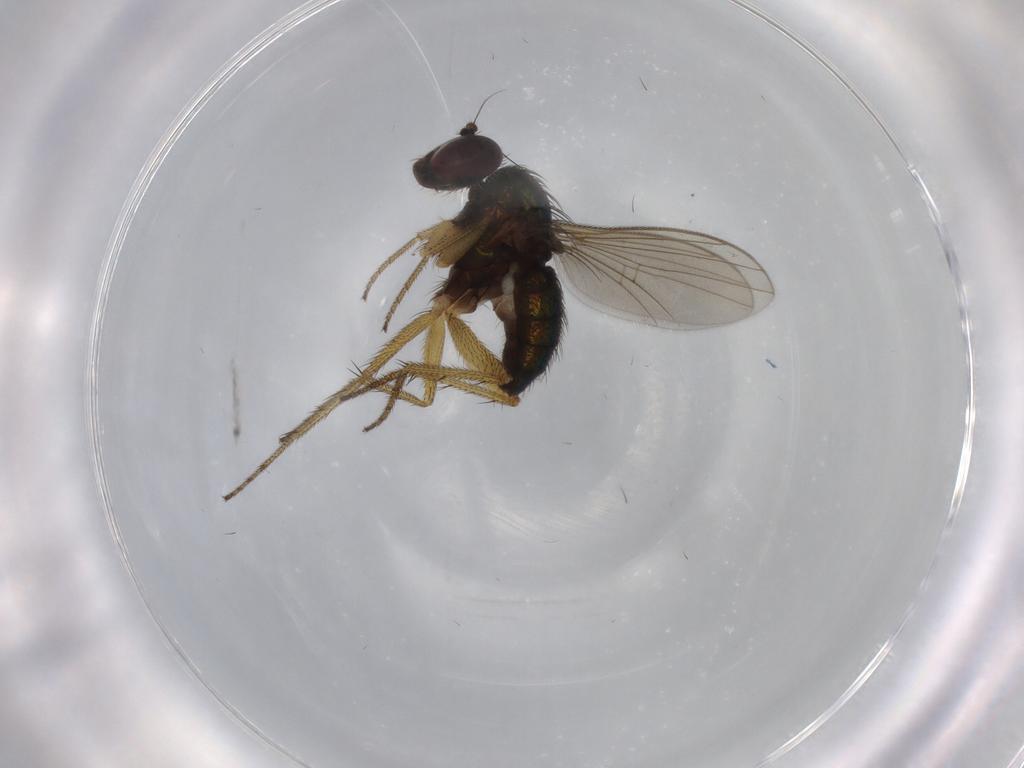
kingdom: Animalia
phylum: Arthropoda
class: Insecta
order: Diptera
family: Dolichopodidae
